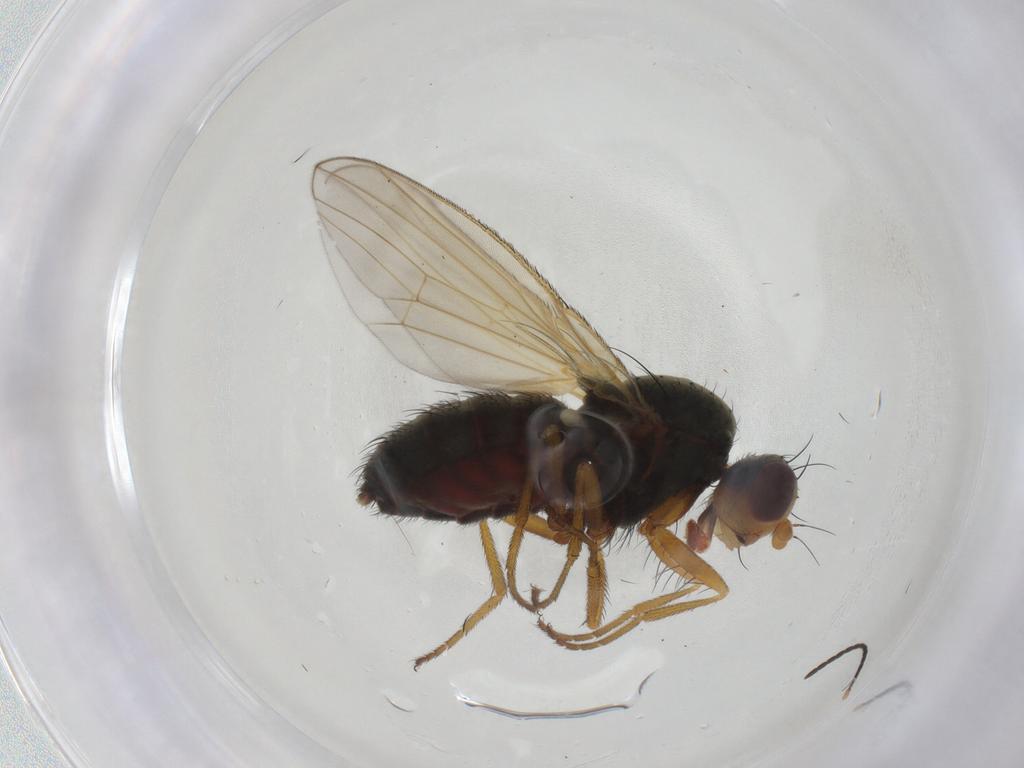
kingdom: Animalia
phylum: Arthropoda
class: Insecta
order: Diptera
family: Heleomyzidae
